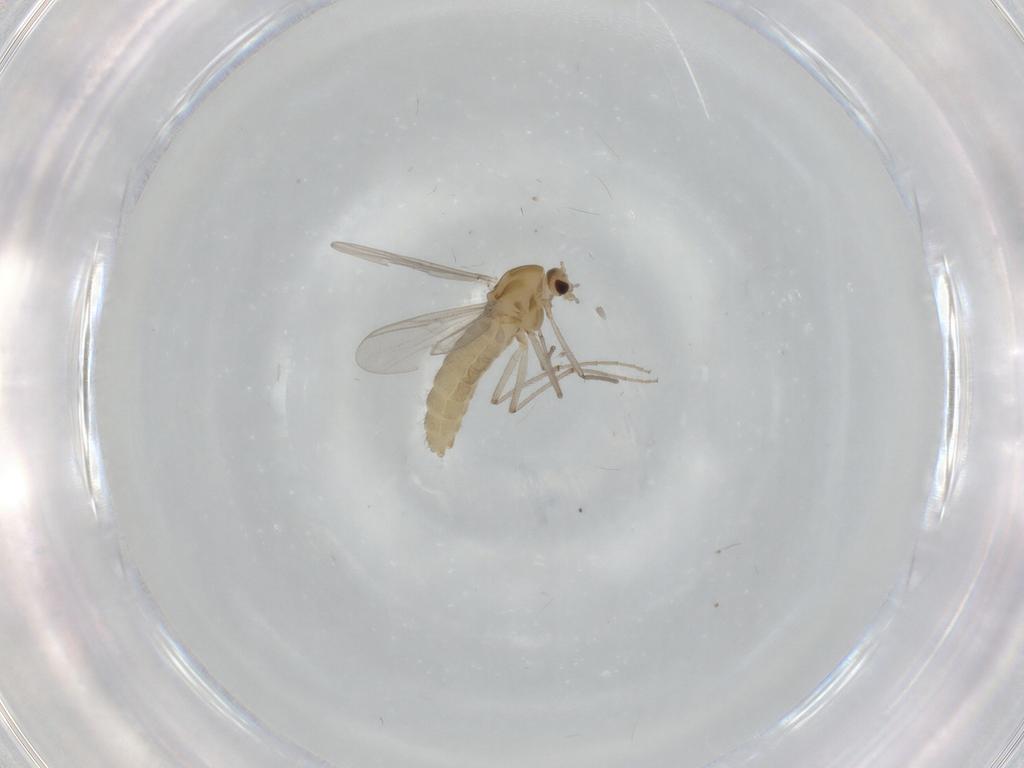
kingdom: Animalia
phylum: Arthropoda
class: Insecta
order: Diptera
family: Chironomidae
